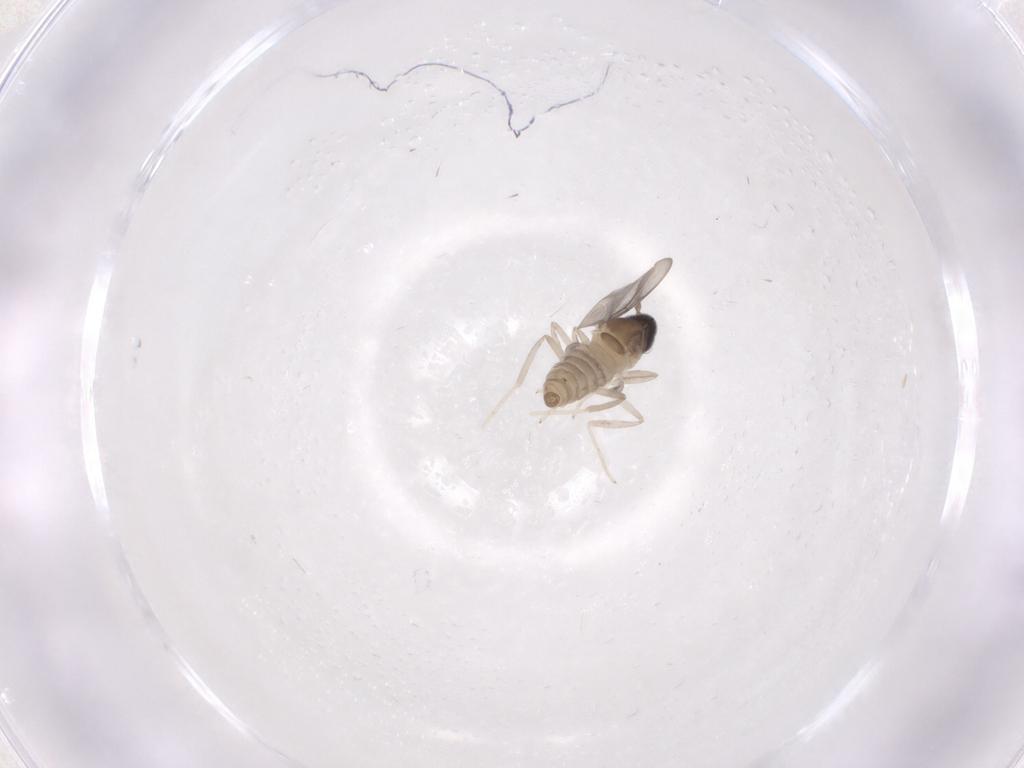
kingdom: Animalia
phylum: Arthropoda
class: Insecta
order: Diptera
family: Cecidomyiidae
